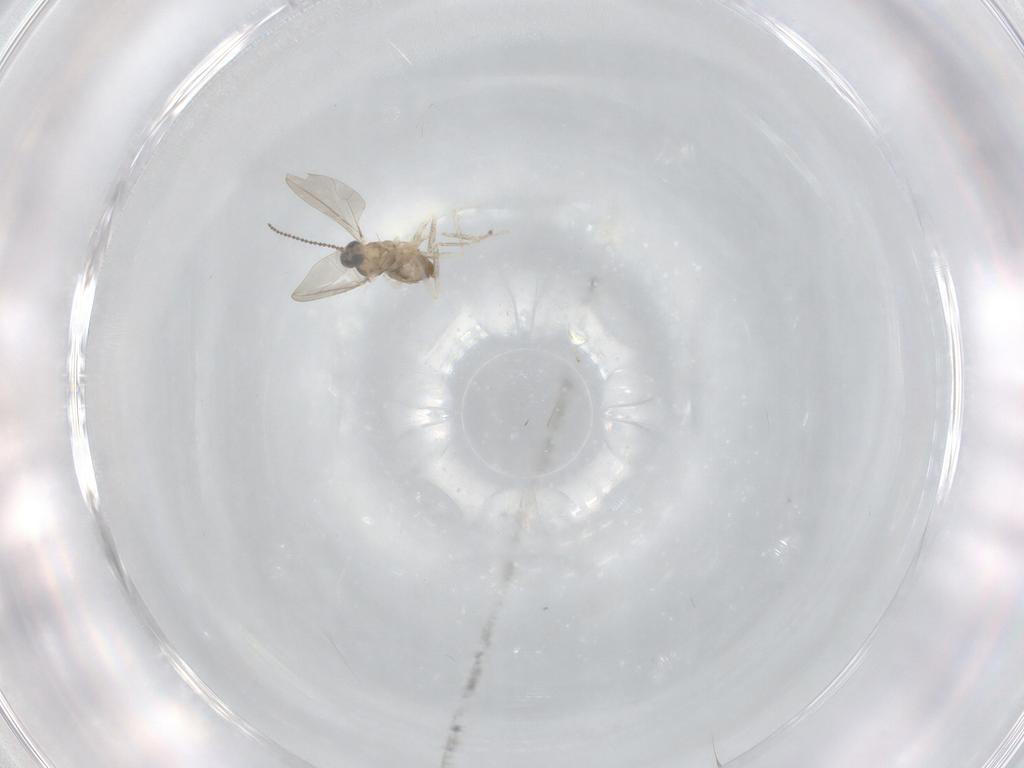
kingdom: Animalia
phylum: Arthropoda
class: Insecta
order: Diptera
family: Cecidomyiidae
